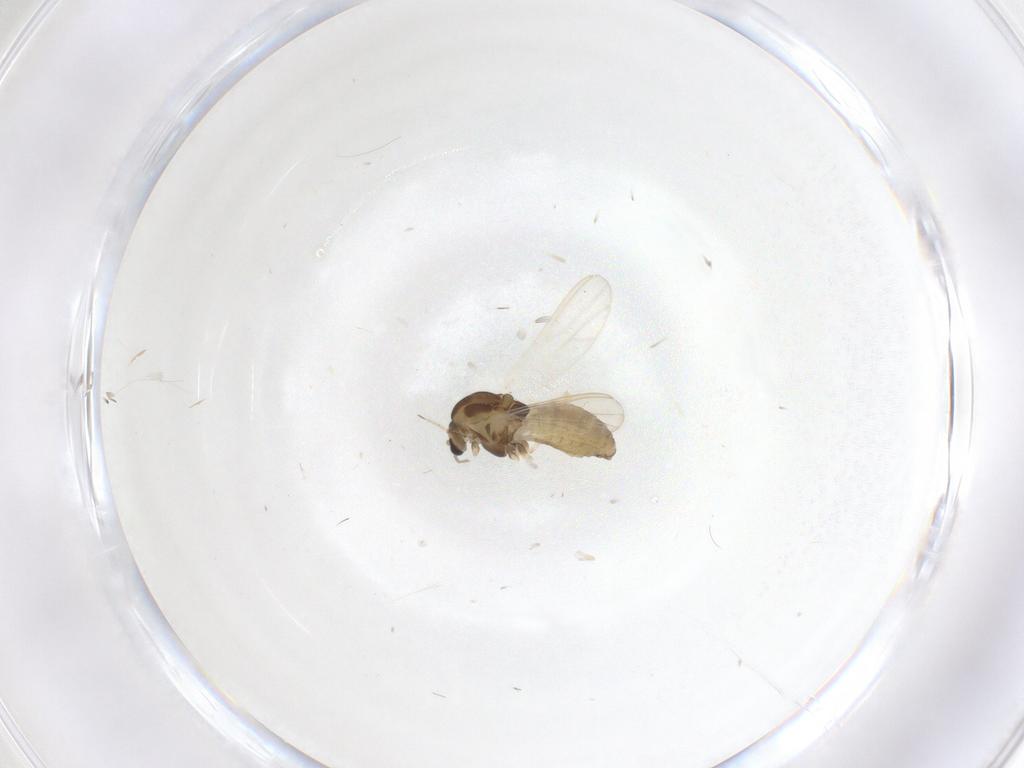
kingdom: Animalia
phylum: Arthropoda
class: Insecta
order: Diptera
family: Chironomidae
